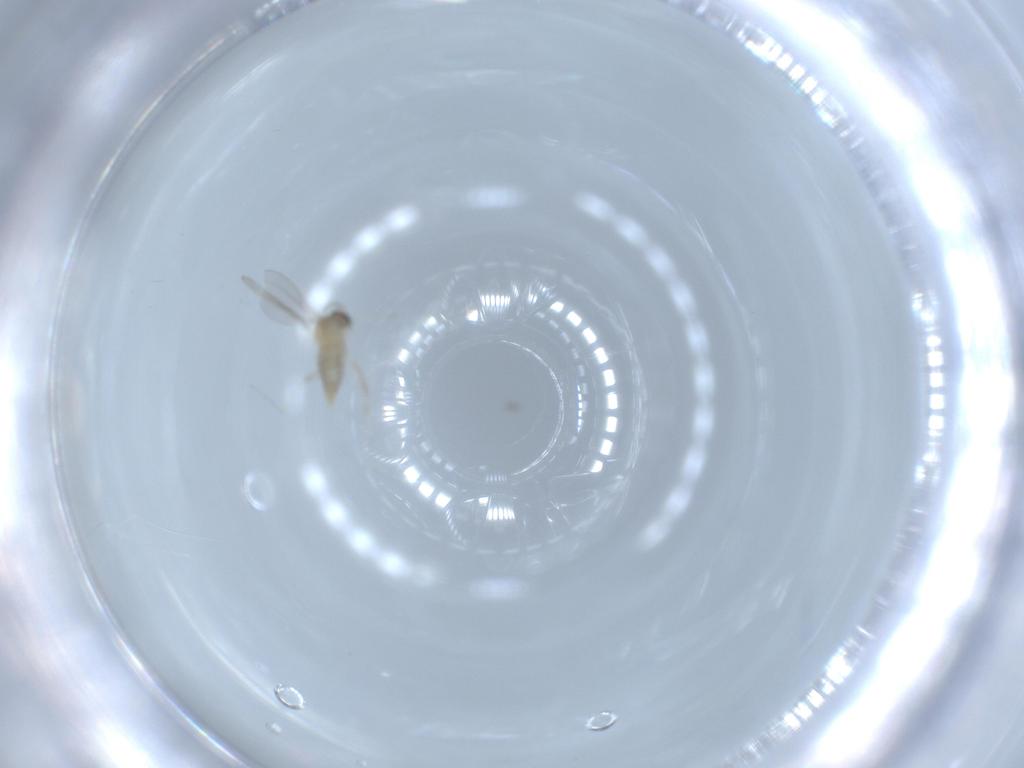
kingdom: Animalia
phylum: Arthropoda
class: Insecta
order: Diptera
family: Cecidomyiidae
